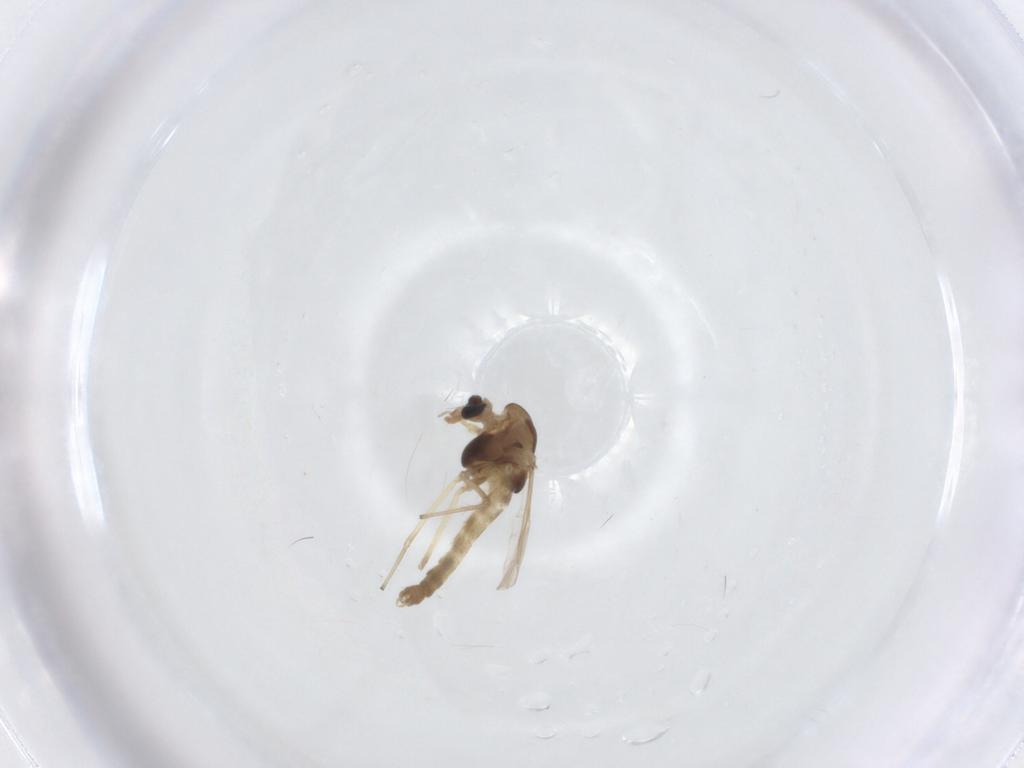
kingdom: Animalia
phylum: Arthropoda
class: Insecta
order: Diptera
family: Chironomidae
